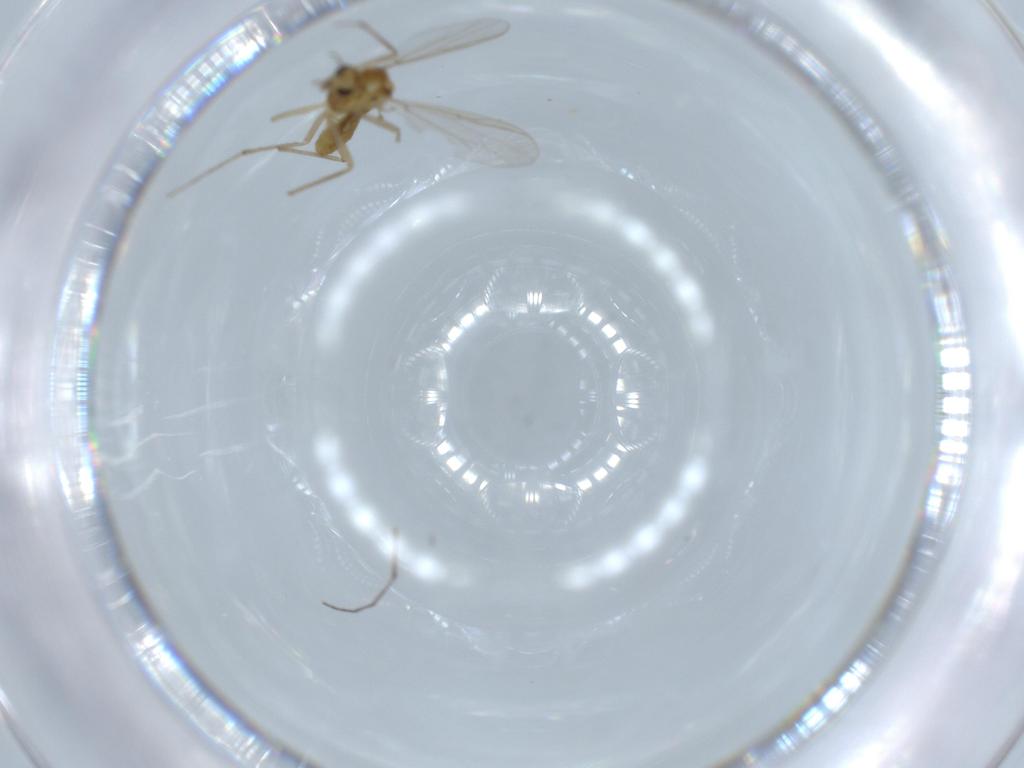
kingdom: Animalia
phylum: Arthropoda
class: Insecta
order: Diptera
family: Chironomidae
